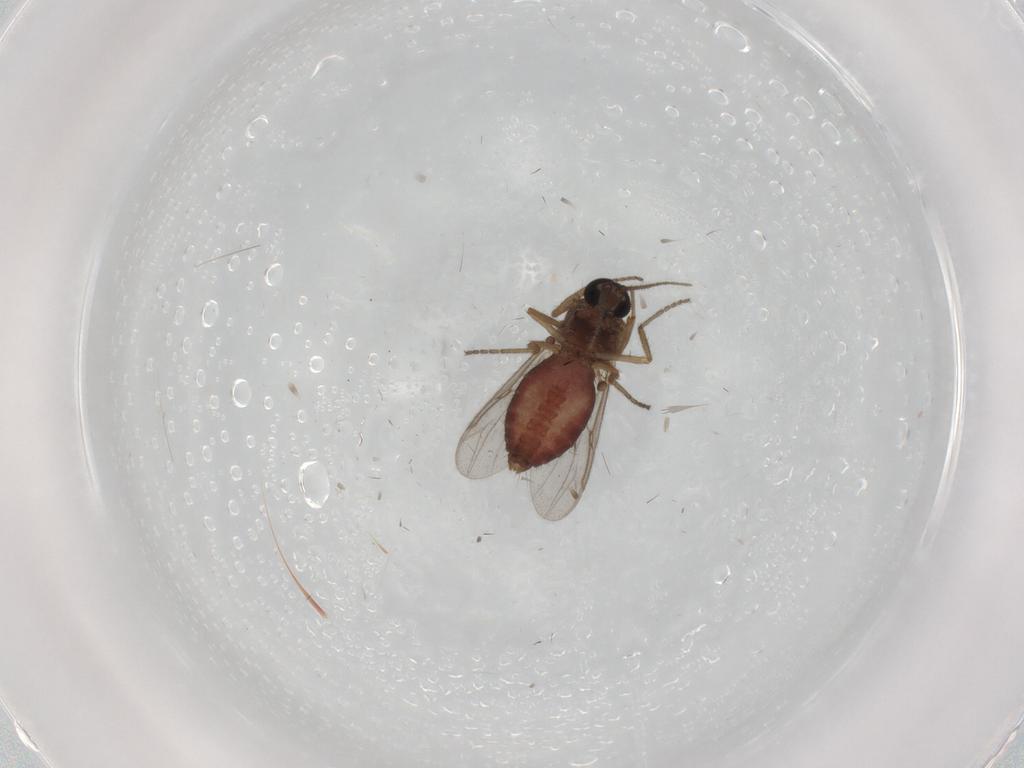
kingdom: Animalia
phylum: Arthropoda
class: Insecta
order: Diptera
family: Ceratopogonidae
